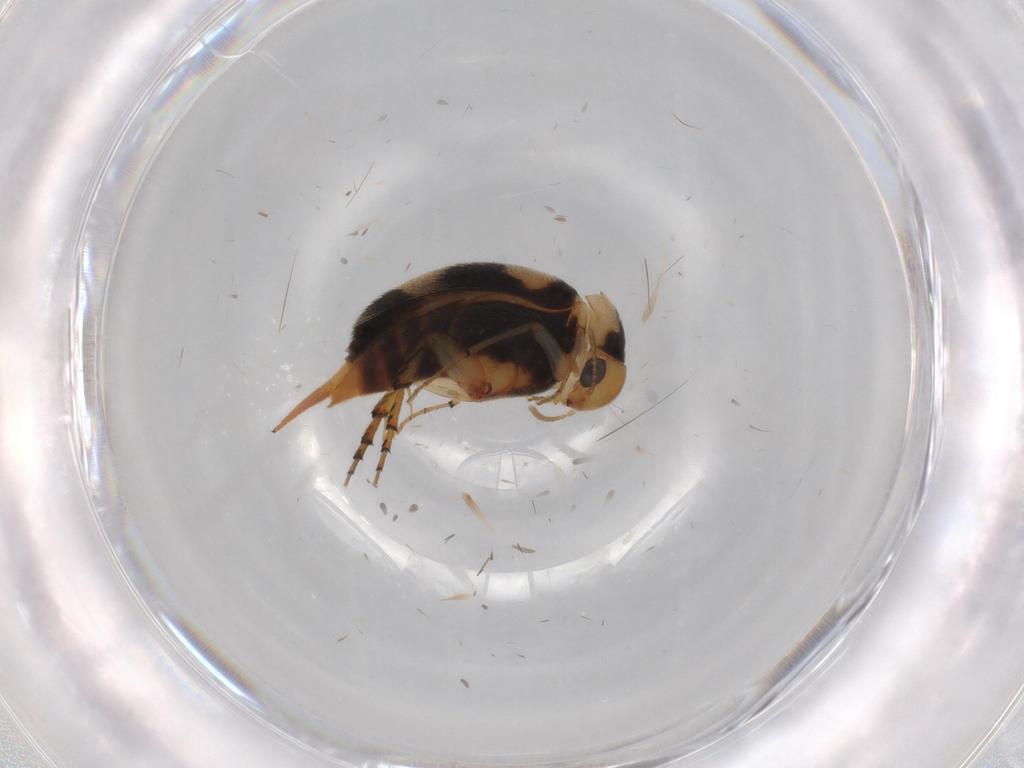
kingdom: Animalia
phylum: Arthropoda
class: Insecta
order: Coleoptera
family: Mordellidae
